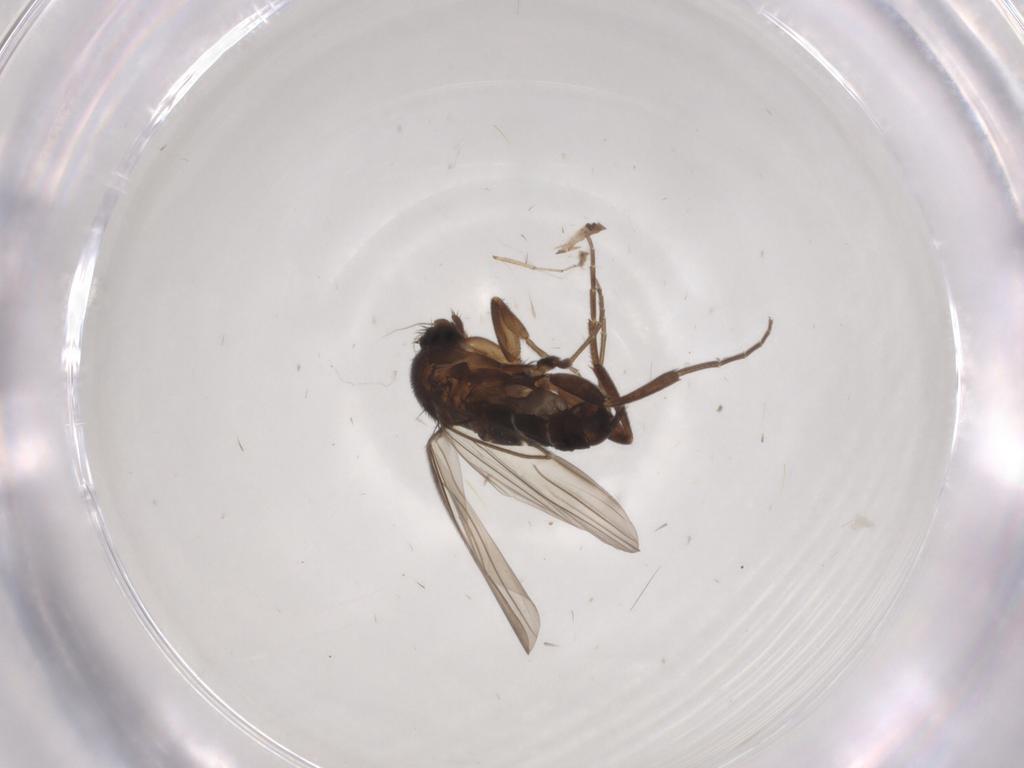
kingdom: Animalia
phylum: Arthropoda
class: Insecta
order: Diptera
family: Cecidomyiidae
